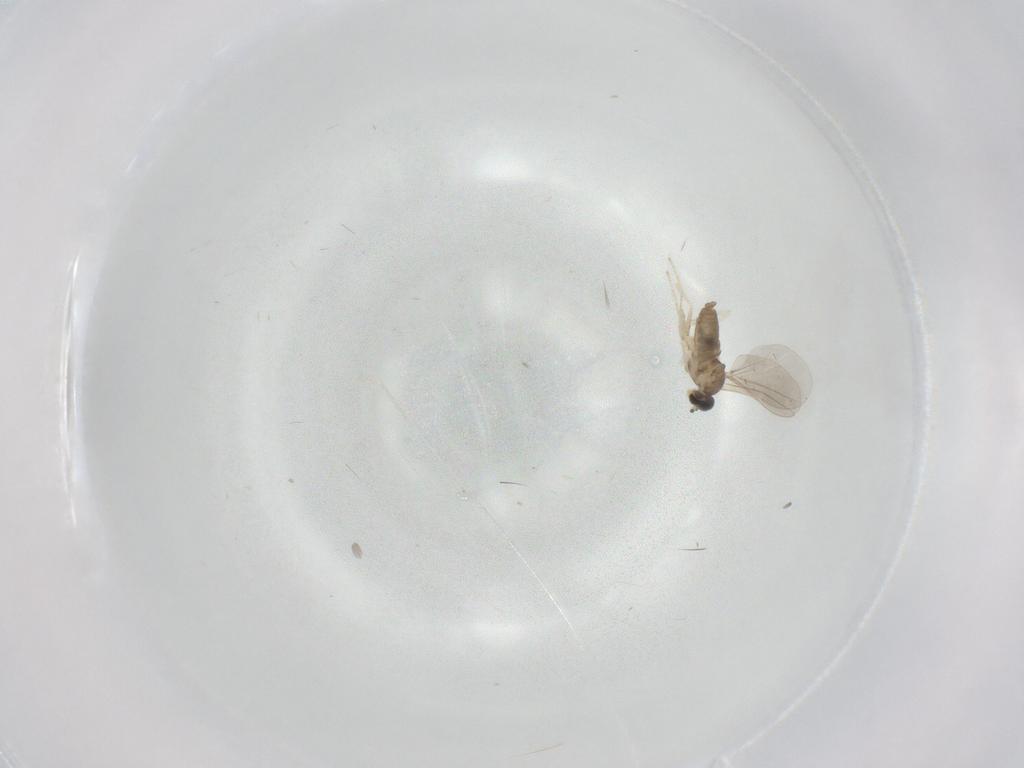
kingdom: Animalia
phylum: Arthropoda
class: Insecta
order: Diptera
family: Cecidomyiidae
